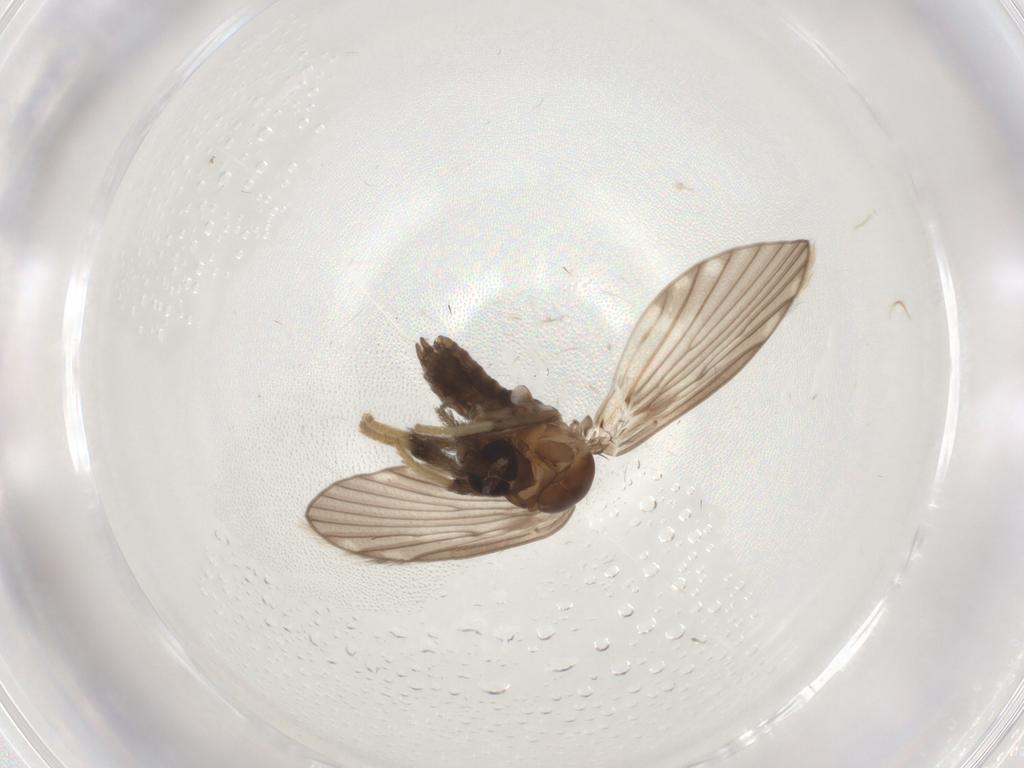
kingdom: Animalia
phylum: Arthropoda
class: Insecta
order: Diptera
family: Psychodidae
